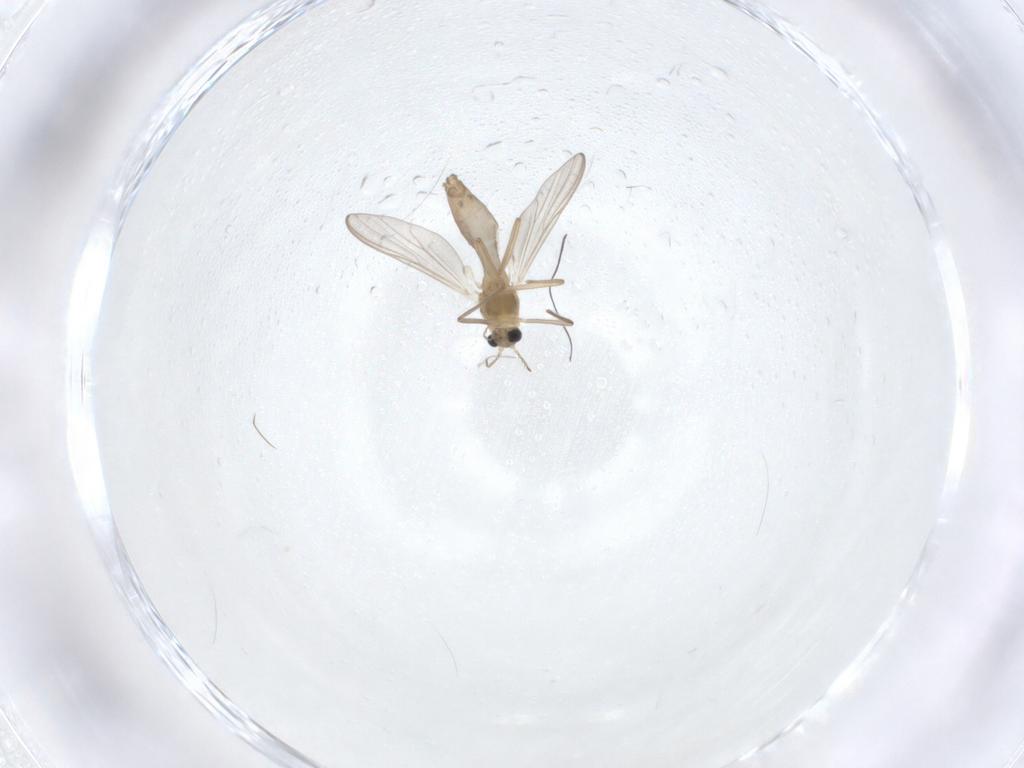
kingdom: Animalia
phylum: Arthropoda
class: Insecta
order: Diptera
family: Chironomidae
